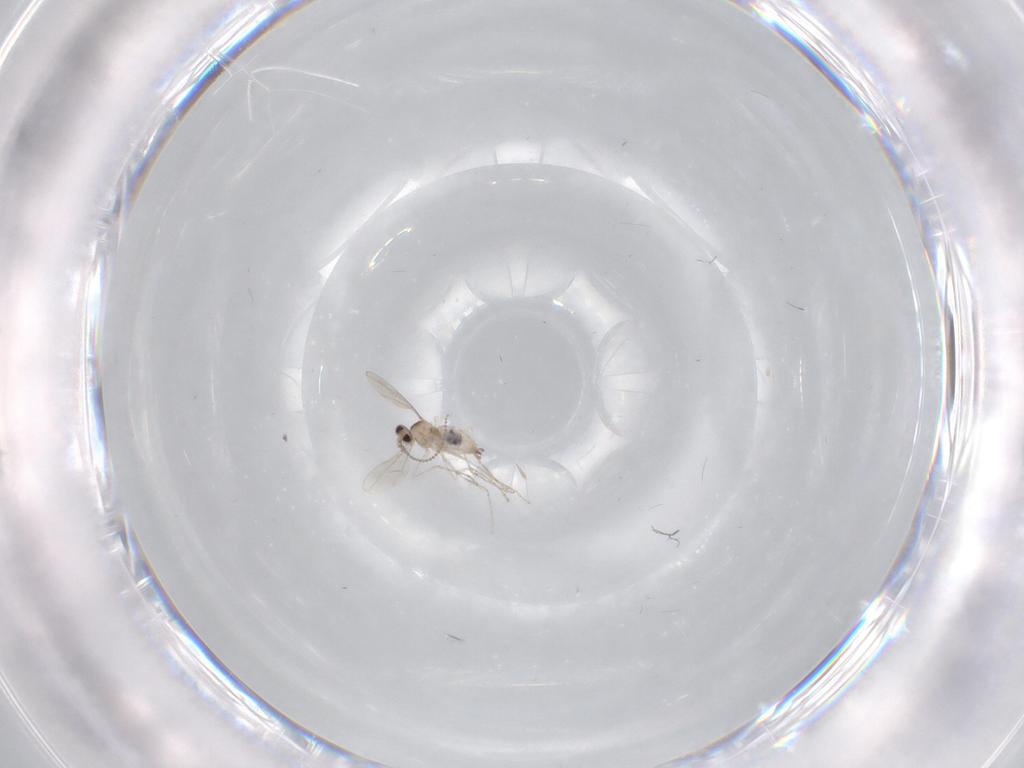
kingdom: Animalia
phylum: Arthropoda
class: Insecta
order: Diptera
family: Cecidomyiidae
